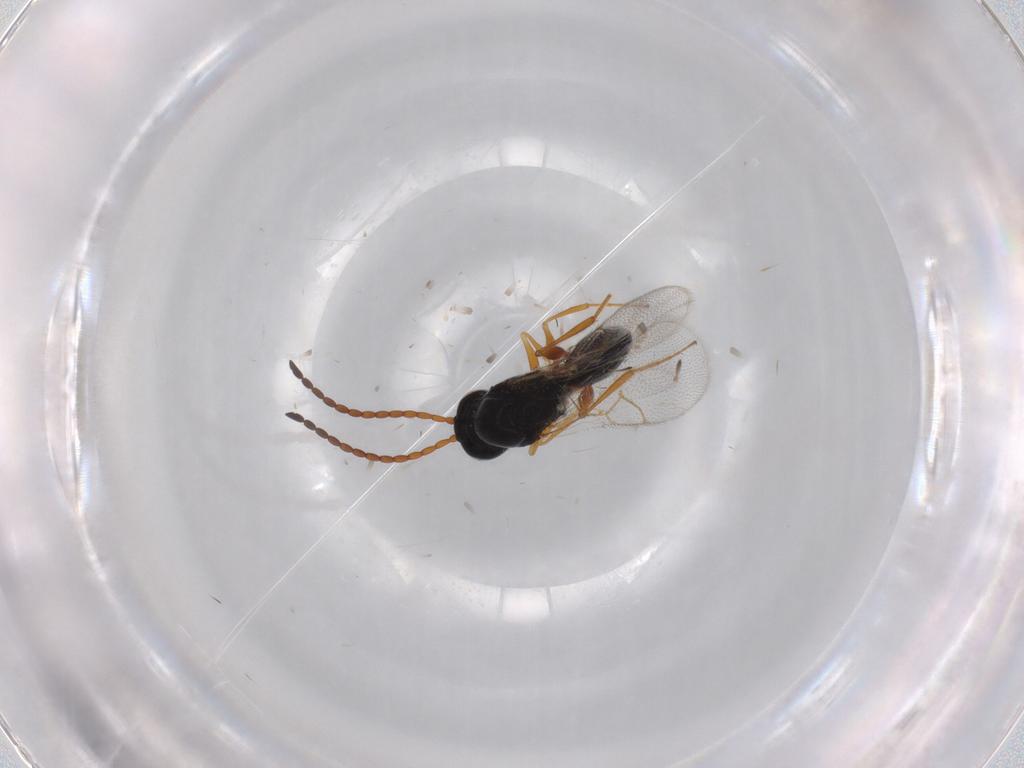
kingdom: Animalia
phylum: Arthropoda
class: Insecta
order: Hymenoptera
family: Figitidae
